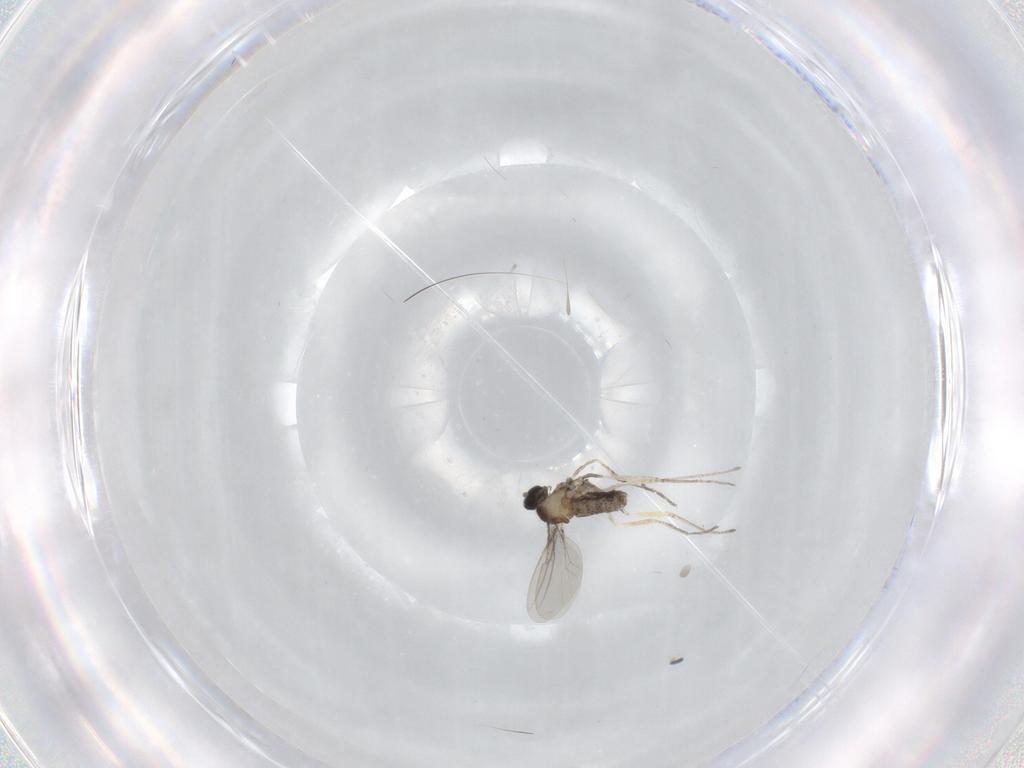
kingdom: Animalia
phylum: Arthropoda
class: Insecta
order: Diptera
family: Cecidomyiidae
